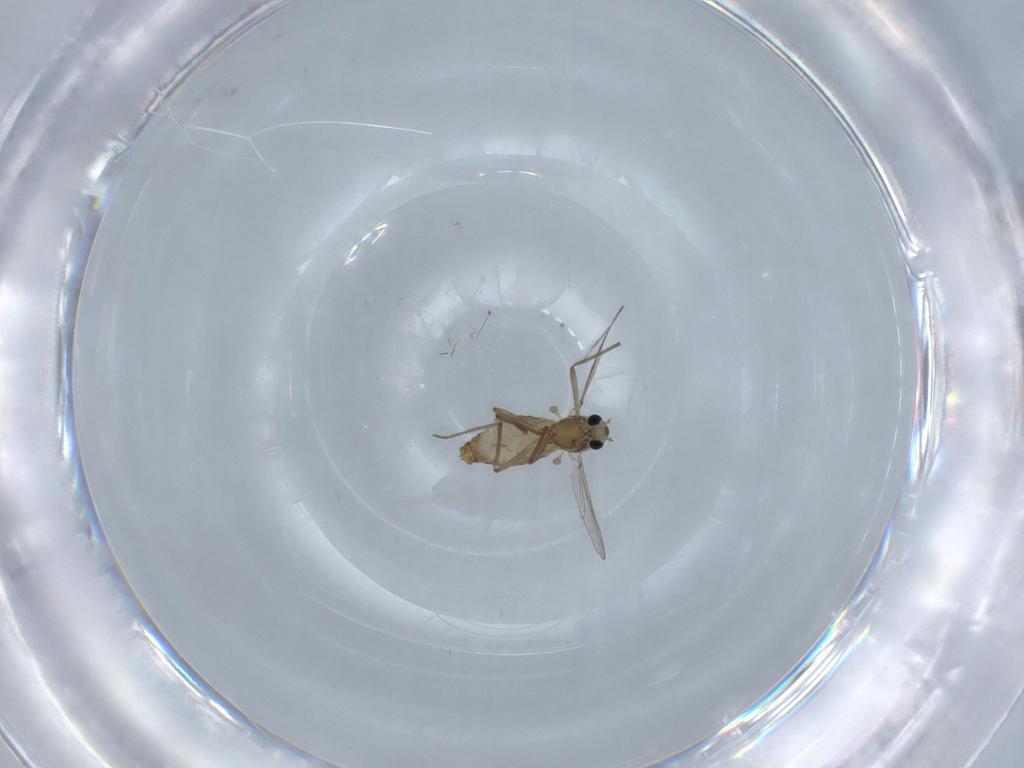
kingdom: Animalia
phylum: Arthropoda
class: Insecta
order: Diptera
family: Chironomidae
